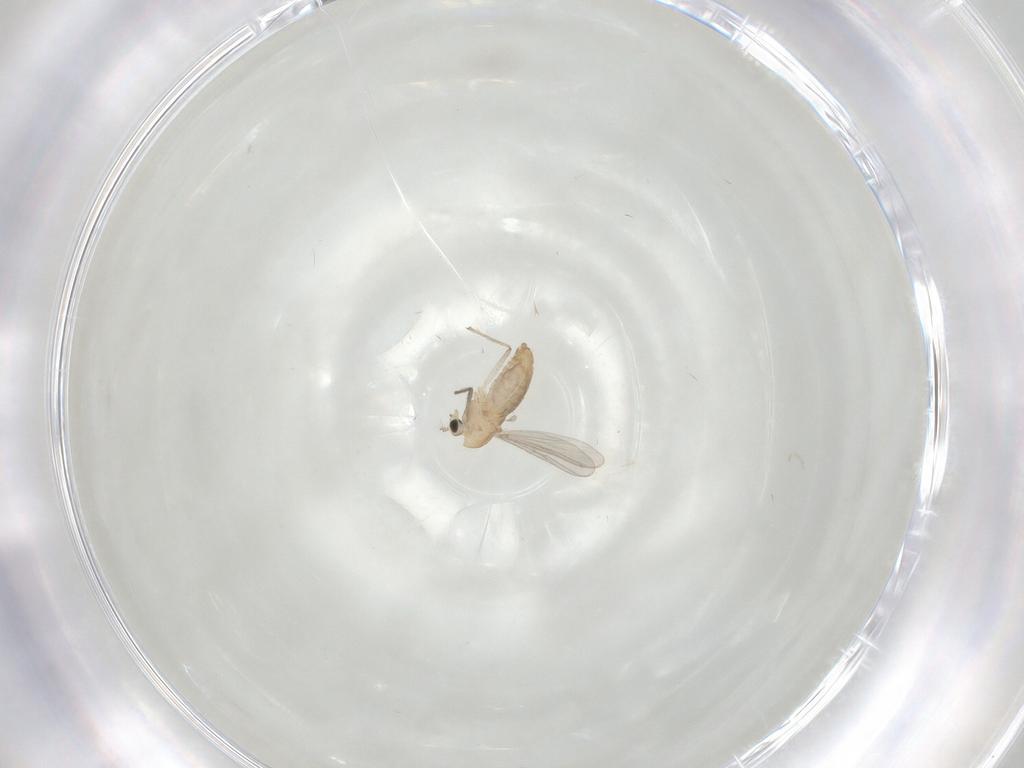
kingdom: Animalia
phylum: Arthropoda
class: Insecta
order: Diptera
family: Chironomidae
